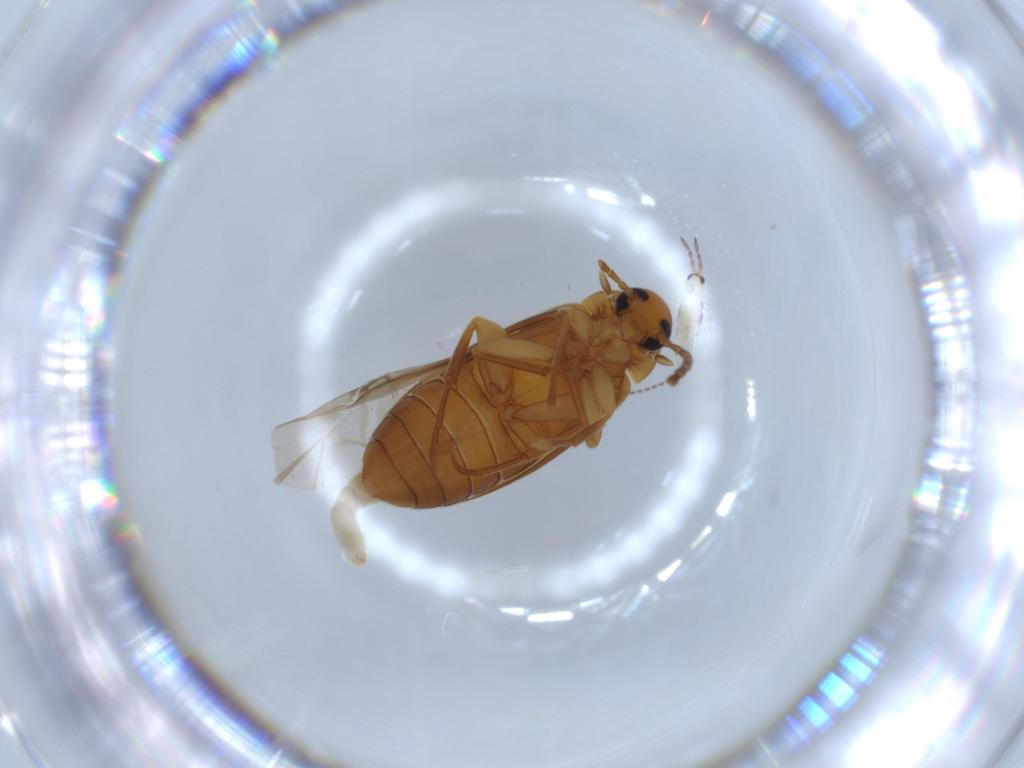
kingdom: Animalia
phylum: Arthropoda
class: Insecta
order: Coleoptera
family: Scraptiidae
